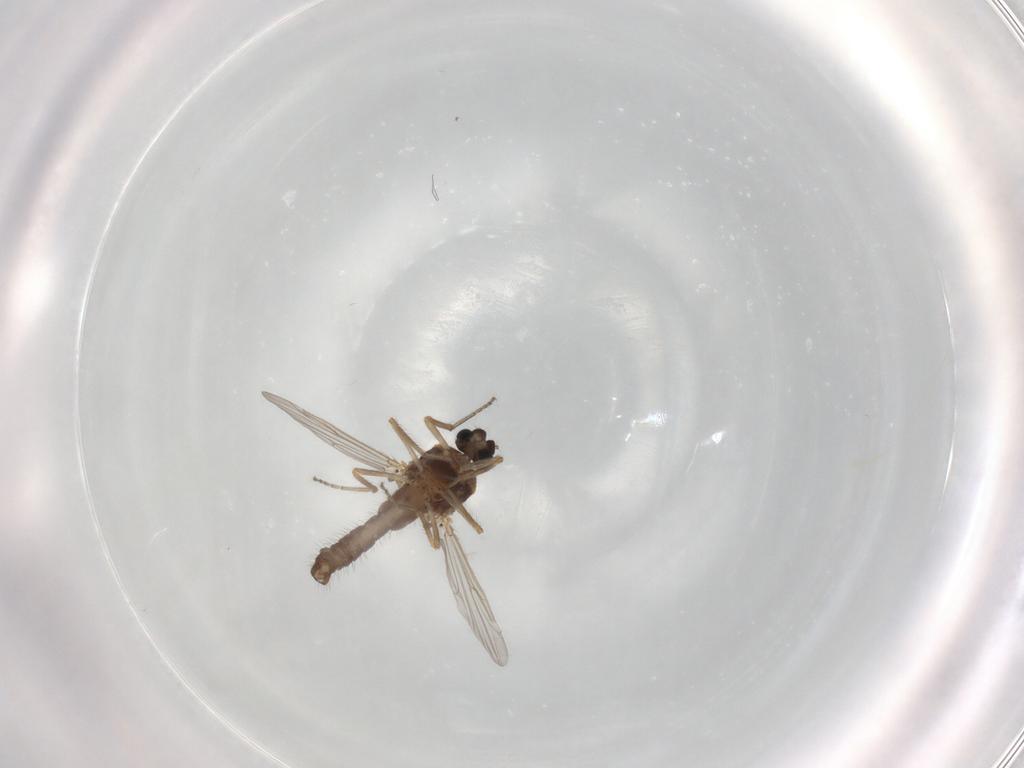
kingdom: Animalia
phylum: Arthropoda
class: Insecta
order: Diptera
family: Ceratopogonidae
